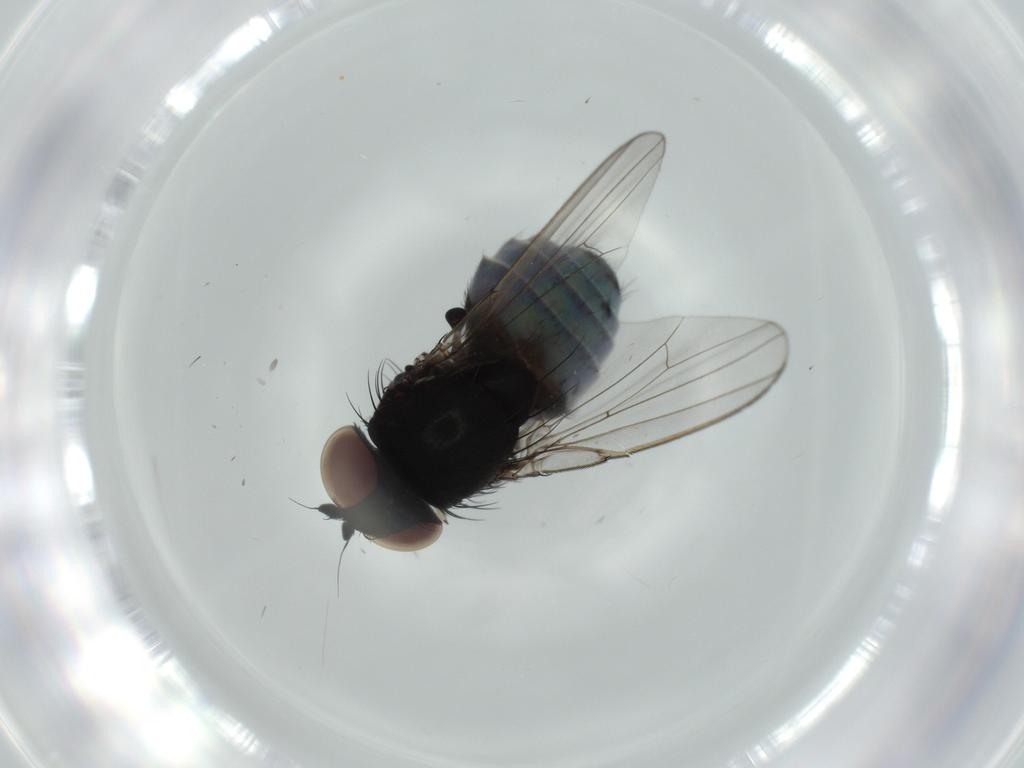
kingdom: Animalia
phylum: Arthropoda
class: Insecta
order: Diptera
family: Milichiidae
